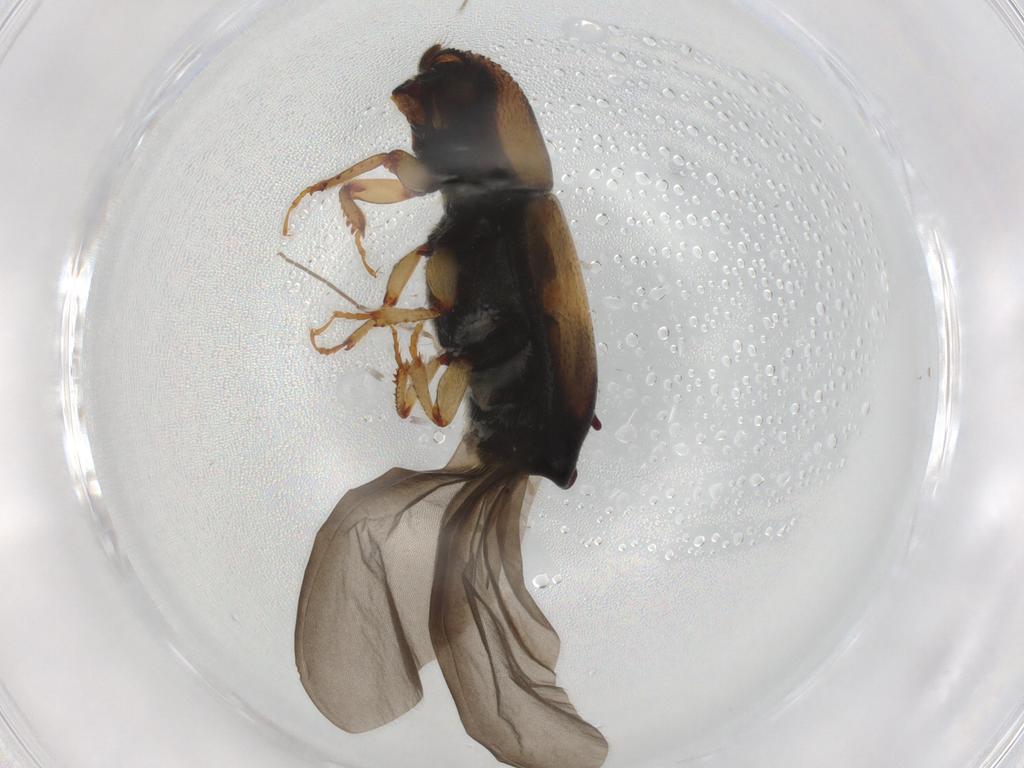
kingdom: Animalia
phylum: Arthropoda
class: Insecta
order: Coleoptera
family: Curculionidae
